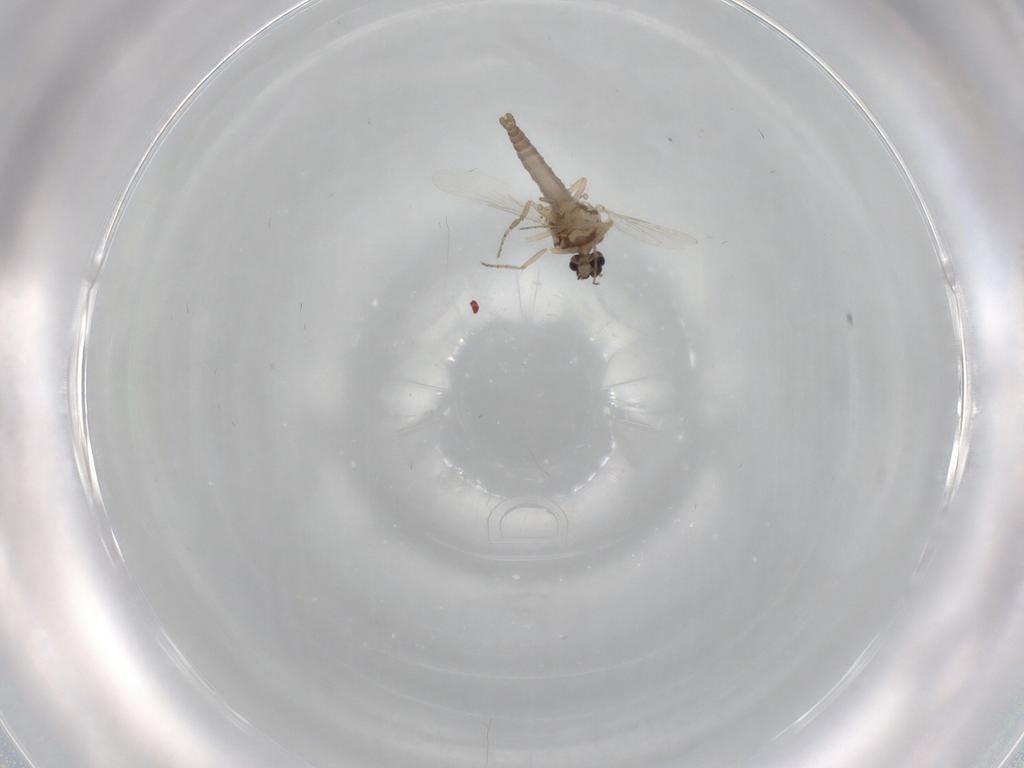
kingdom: Animalia
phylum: Arthropoda
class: Insecta
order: Diptera
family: Ceratopogonidae
